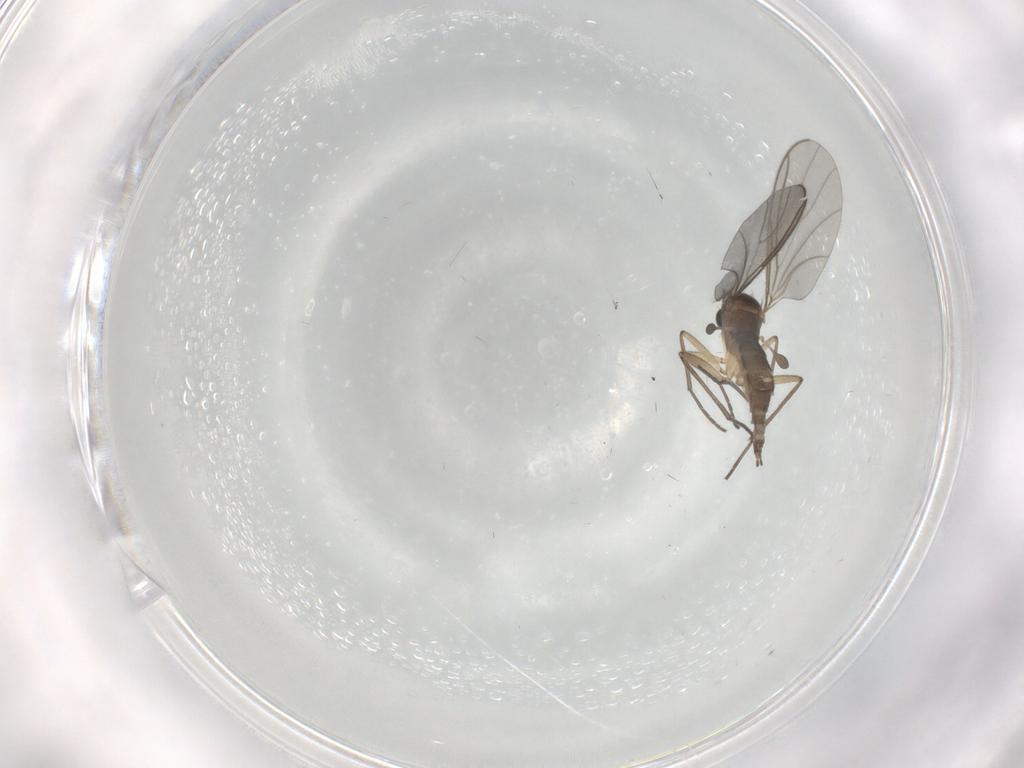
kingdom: Animalia
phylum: Arthropoda
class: Insecta
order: Diptera
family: Sciaridae
